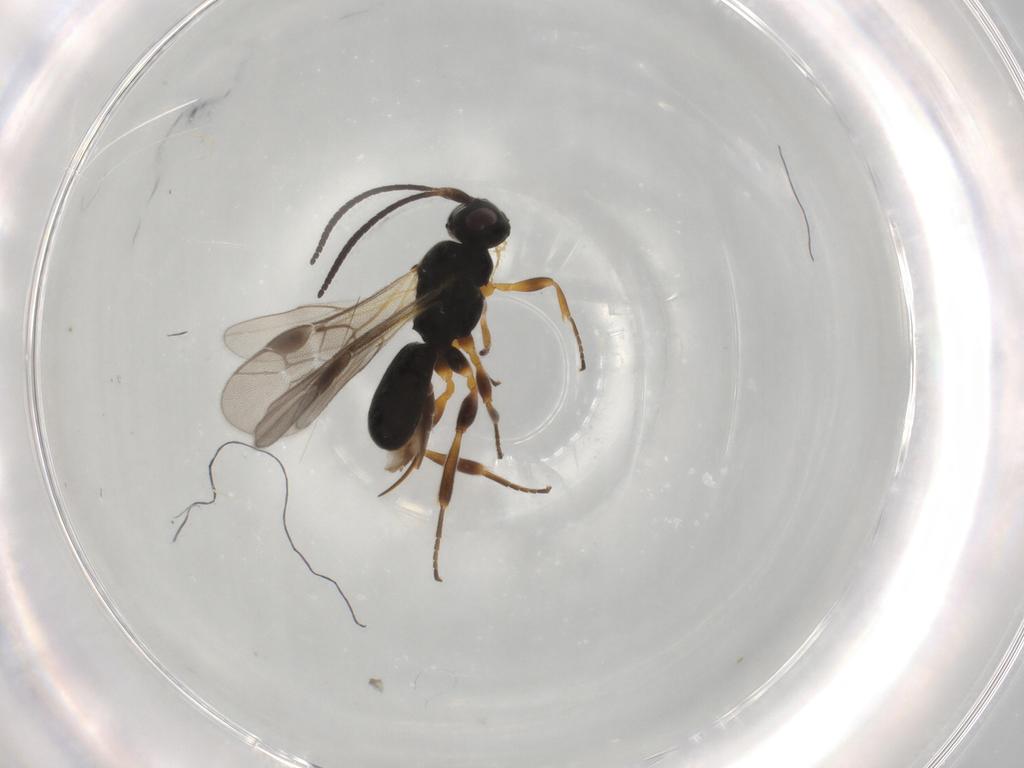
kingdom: Animalia
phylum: Arthropoda
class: Insecta
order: Hymenoptera
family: Braconidae
